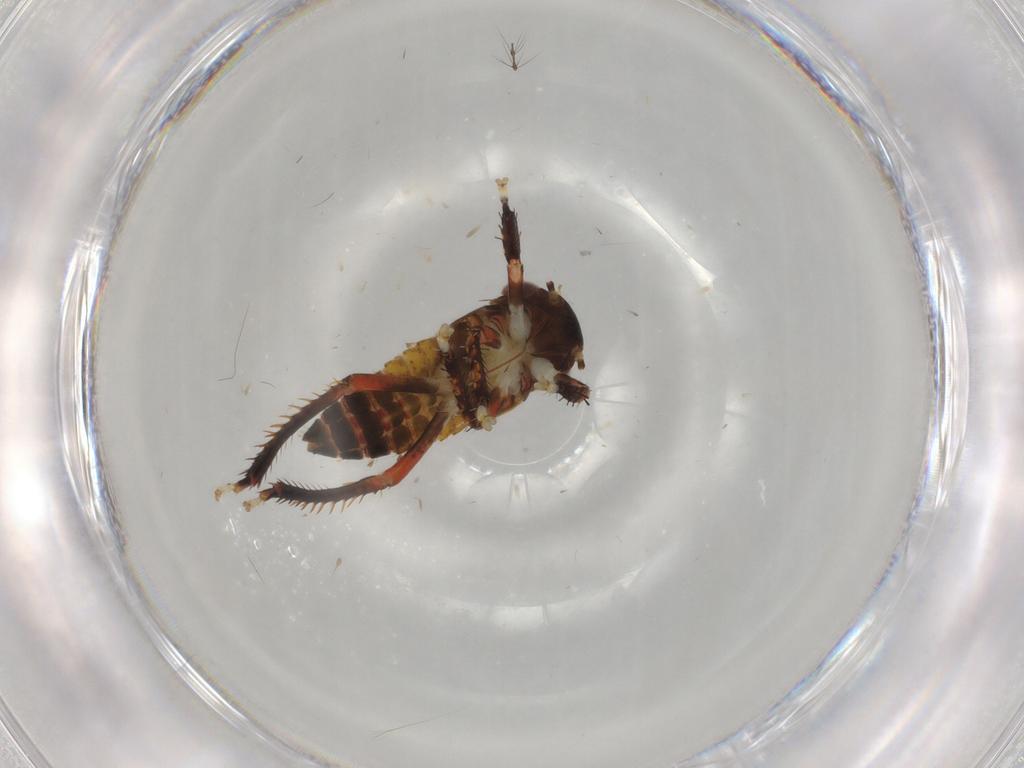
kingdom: Animalia
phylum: Arthropoda
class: Insecta
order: Hemiptera
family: Cicadellidae
